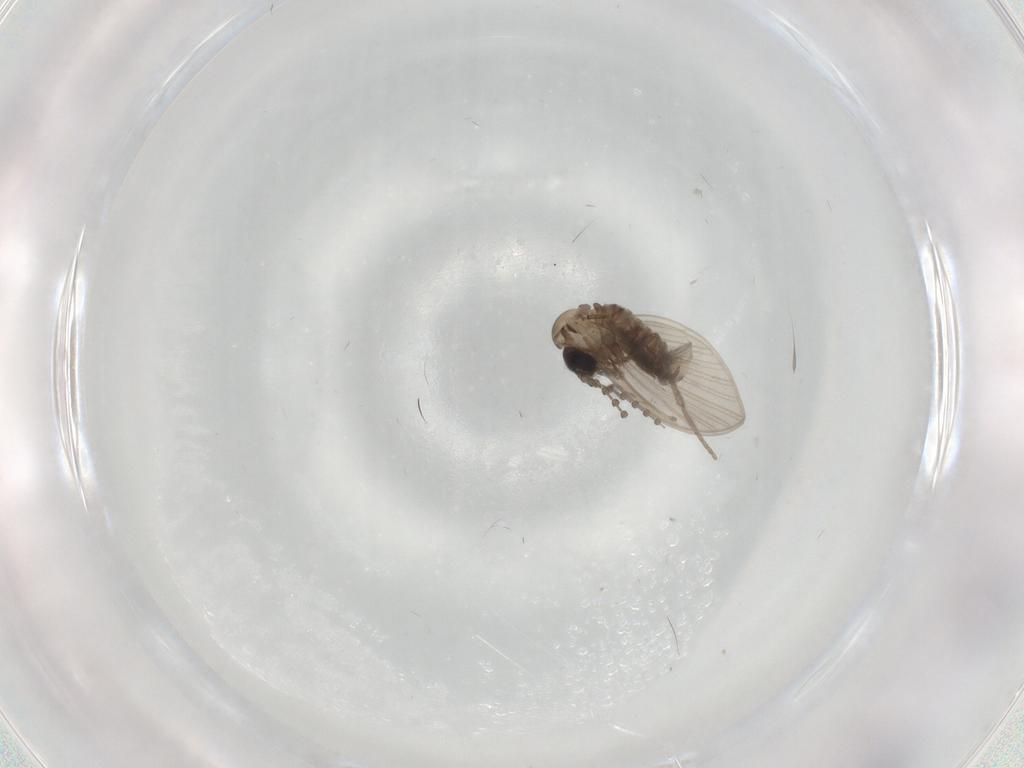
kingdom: Animalia
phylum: Arthropoda
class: Insecta
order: Diptera
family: Psychodidae
